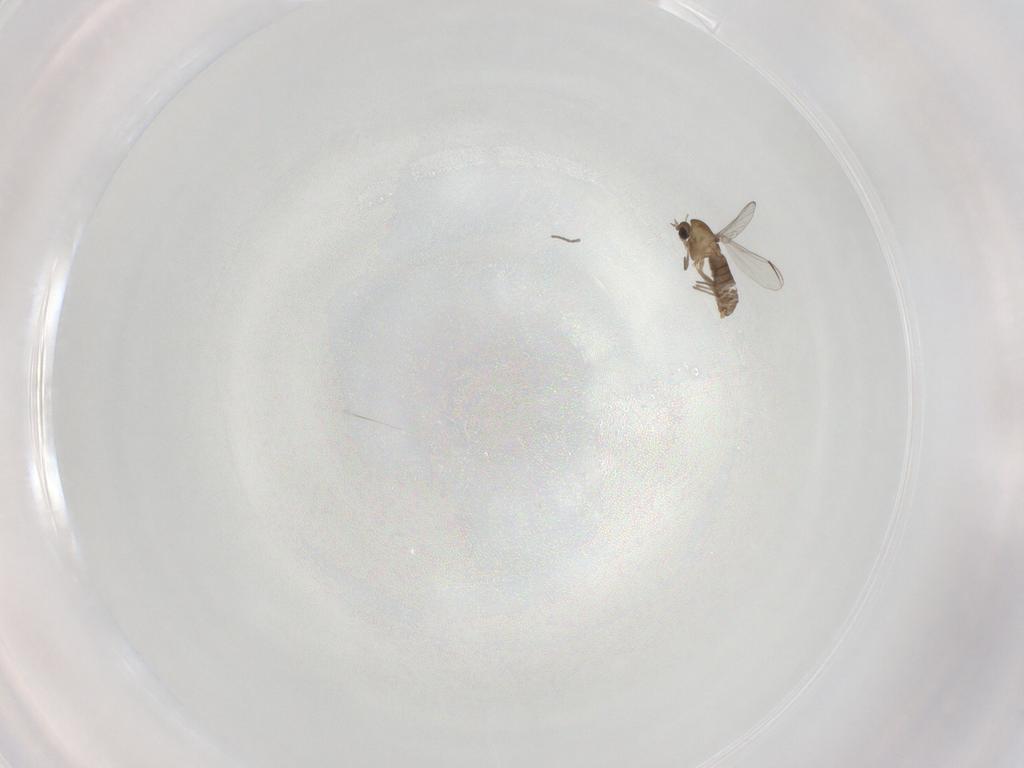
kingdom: Animalia
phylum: Arthropoda
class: Insecta
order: Diptera
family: Chironomidae
